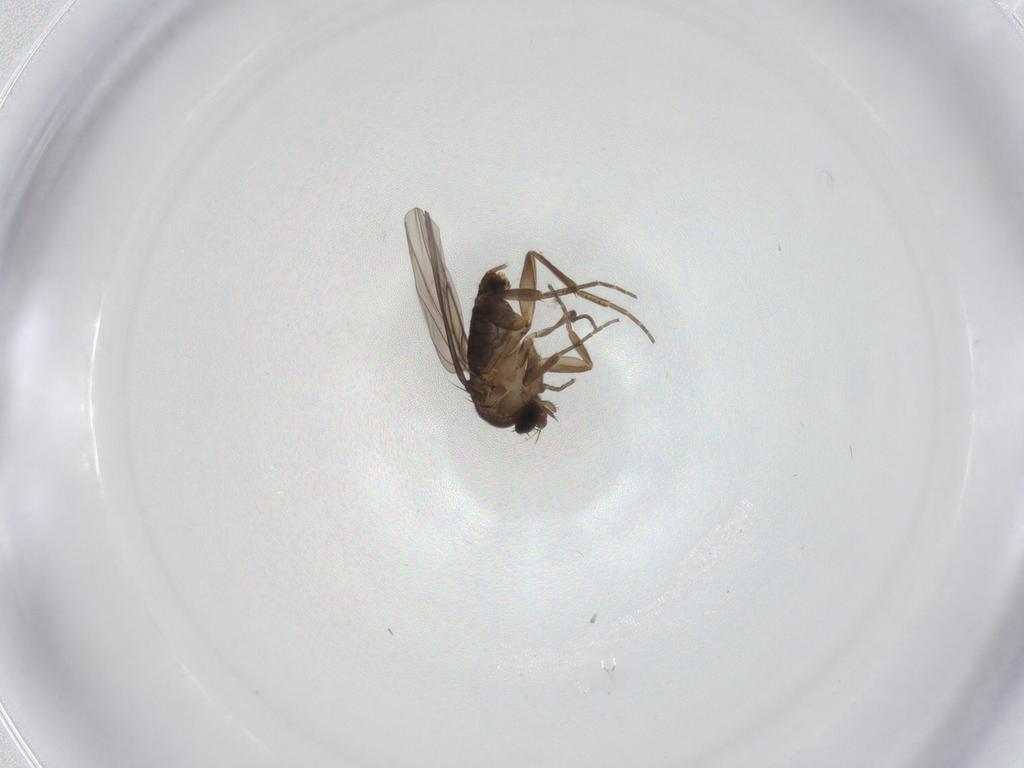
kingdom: Animalia
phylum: Arthropoda
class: Insecta
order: Diptera
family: Phoridae
